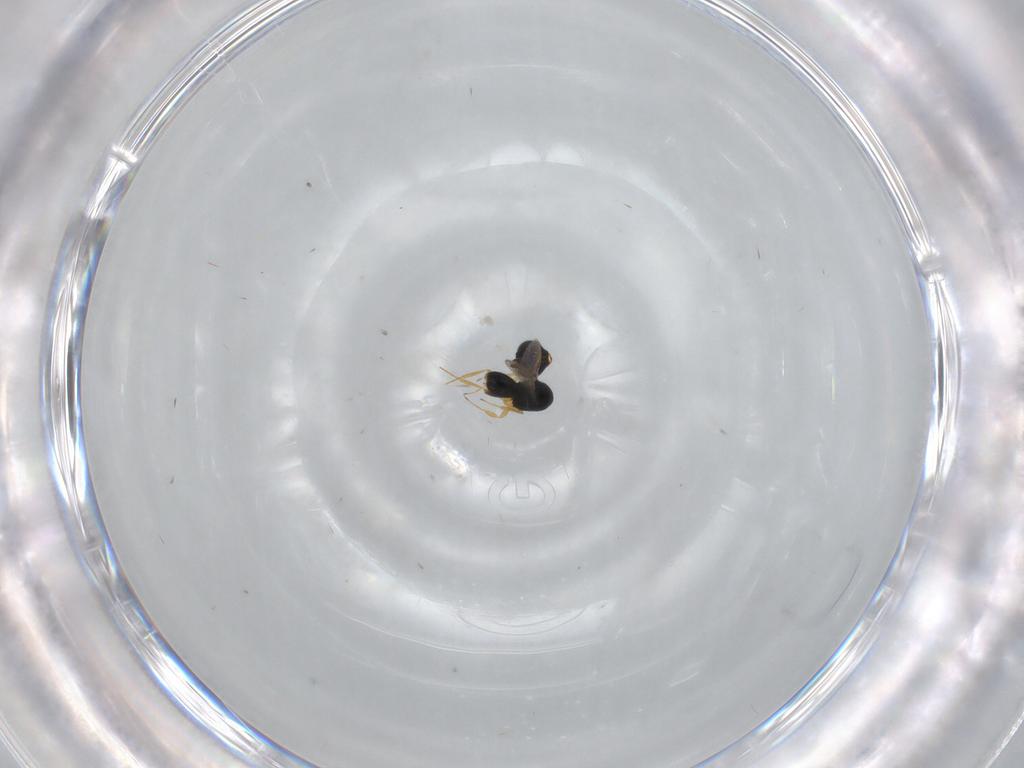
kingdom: Animalia
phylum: Arthropoda
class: Insecta
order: Hymenoptera
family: Scelionidae
